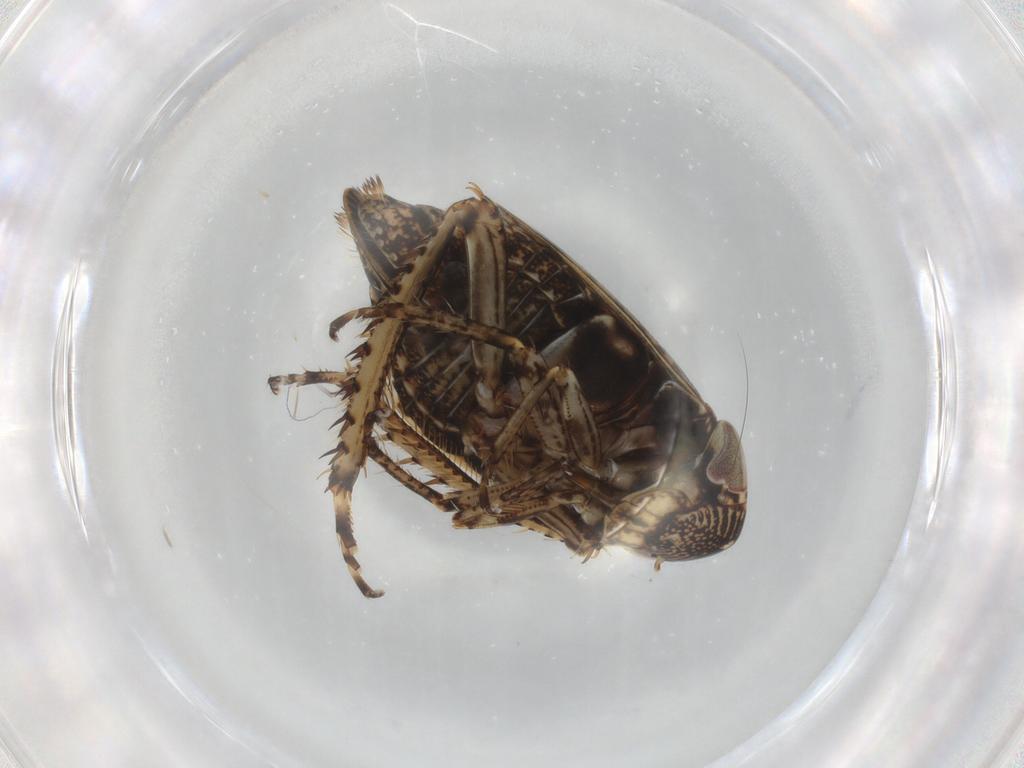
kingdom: Animalia
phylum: Arthropoda
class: Insecta
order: Hemiptera
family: Cicadellidae
